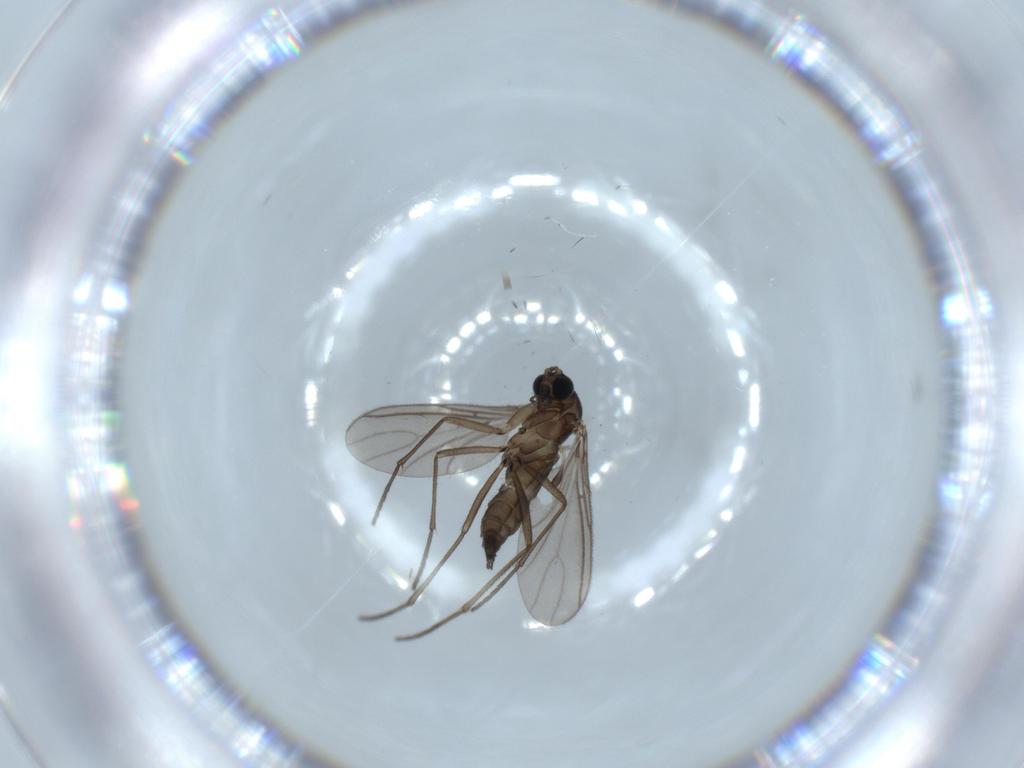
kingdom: Animalia
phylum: Arthropoda
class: Insecta
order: Diptera
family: Sciaridae
